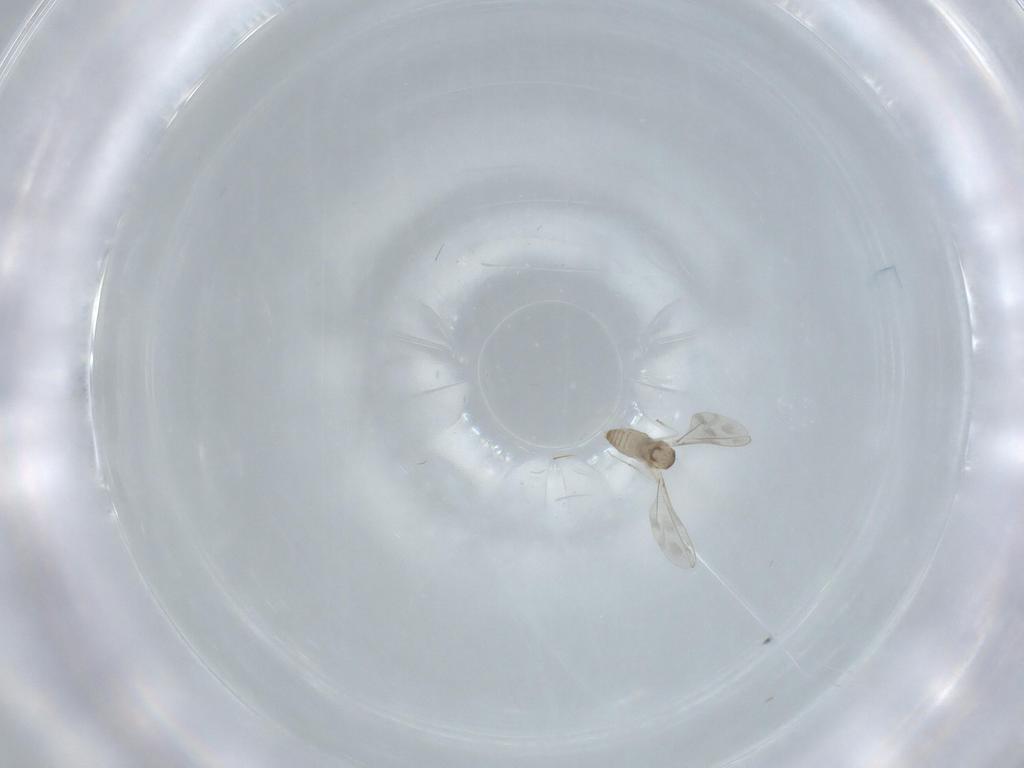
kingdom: Animalia
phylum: Arthropoda
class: Insecta
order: Diptera
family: Cecidomyiidae
